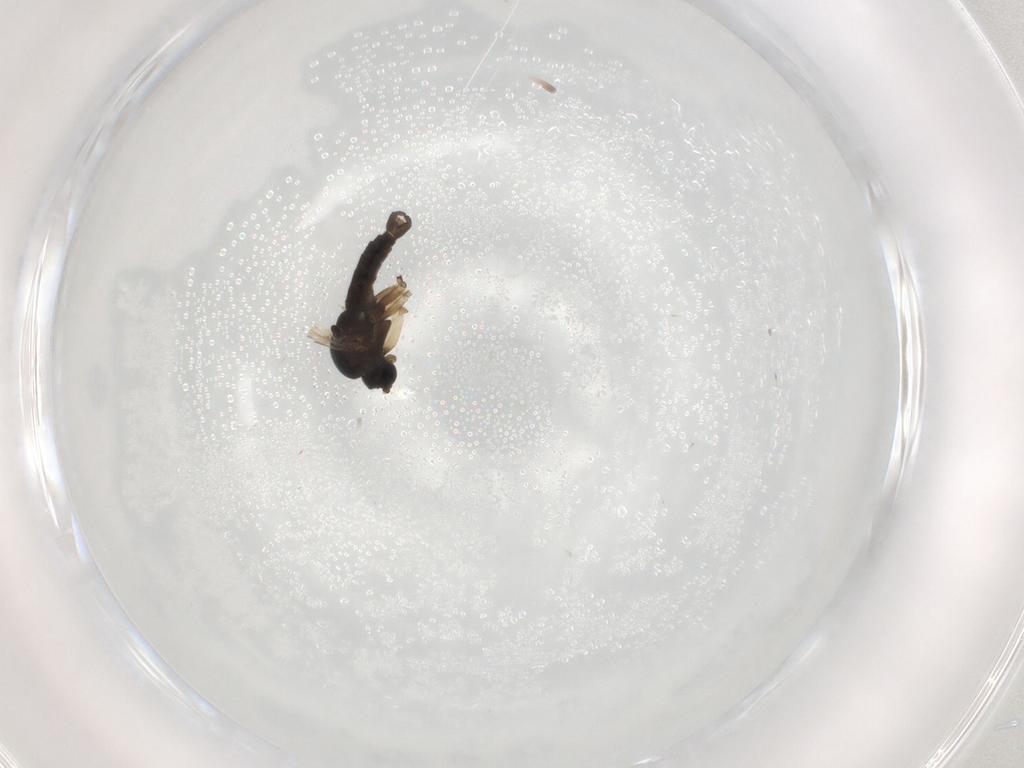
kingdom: Animalia
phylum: Arthropoda
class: Insecta
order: Diptera
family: Sciaridae
